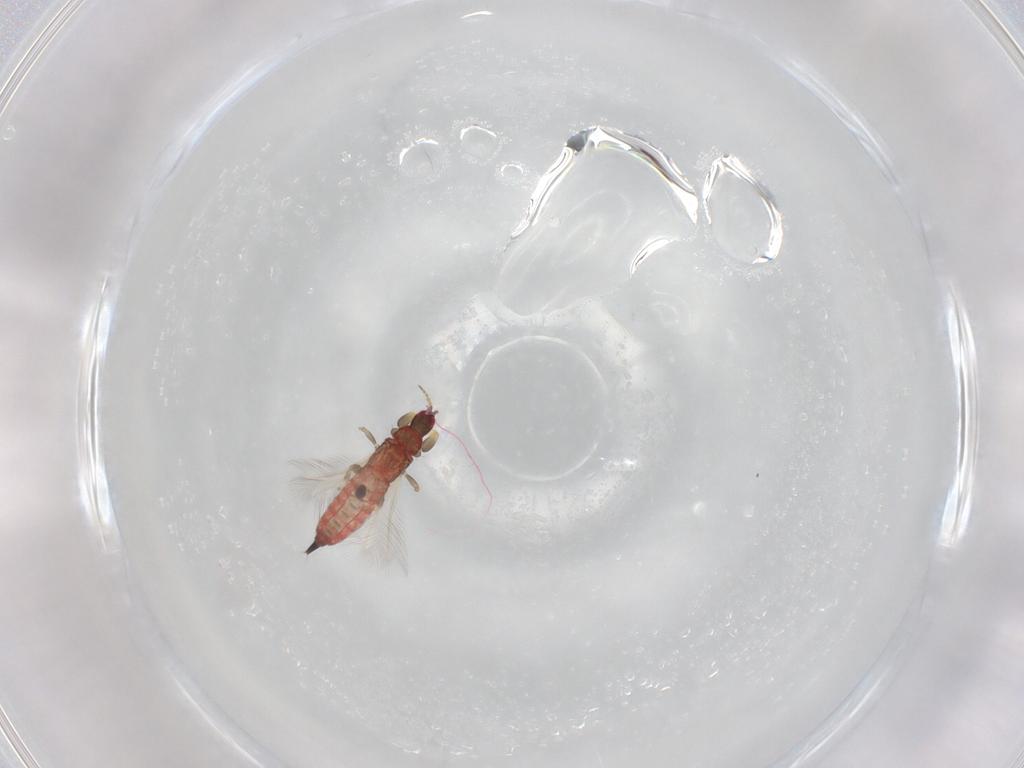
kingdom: Animalia
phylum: Arthropoda
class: Insecta
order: Thysanoptera
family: Phlaeothripidae
